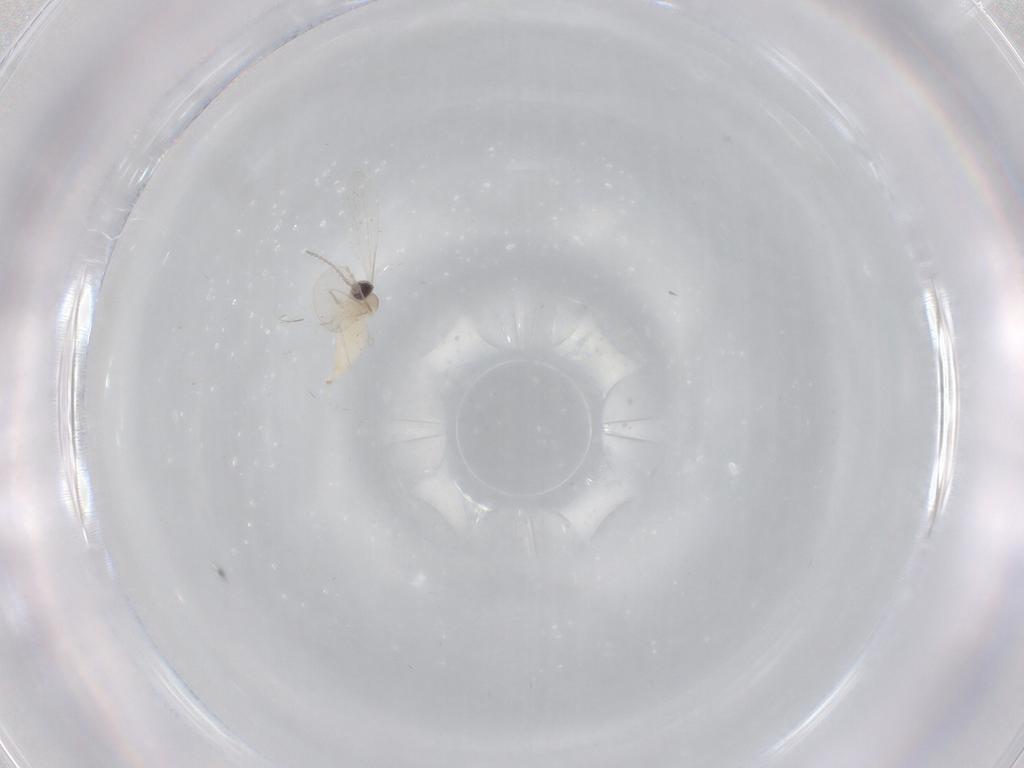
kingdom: Animalia
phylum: Arthropoda
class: Insecta
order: Diptera
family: Cecidomyiidae
